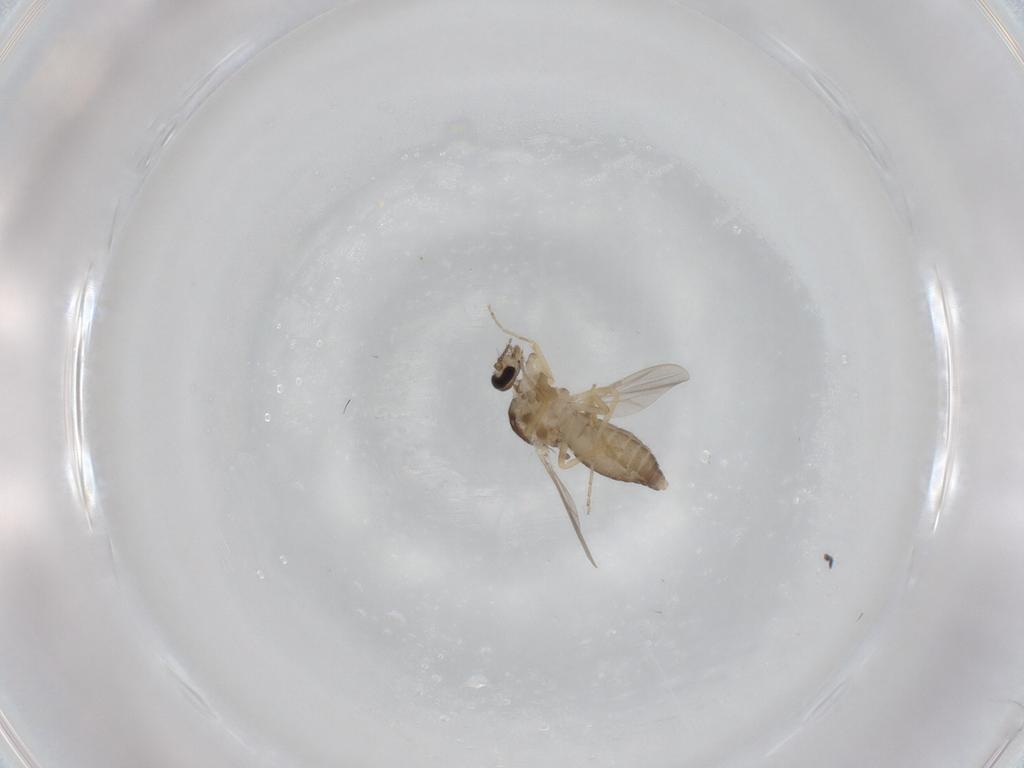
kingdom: Animalia
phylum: Arthropoda
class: Insecta
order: Diptera
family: Ceratopogonidae
